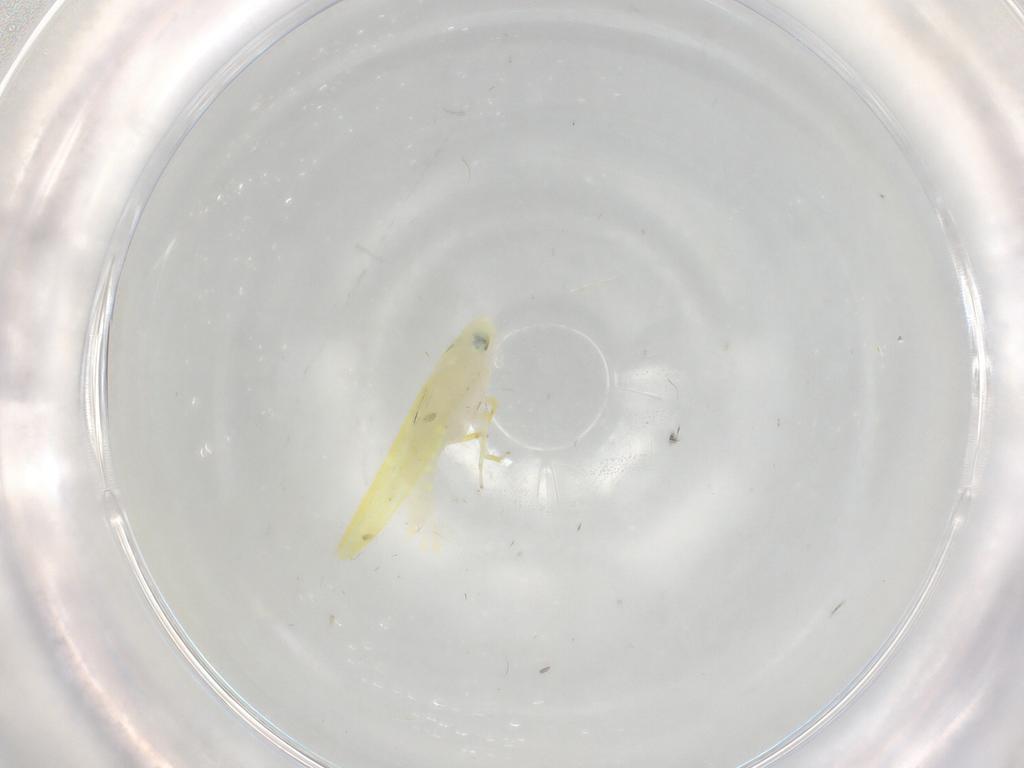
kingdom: Animalia
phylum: Arthropoda
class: Insecta
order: Hemiptera
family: Cicadellidae
